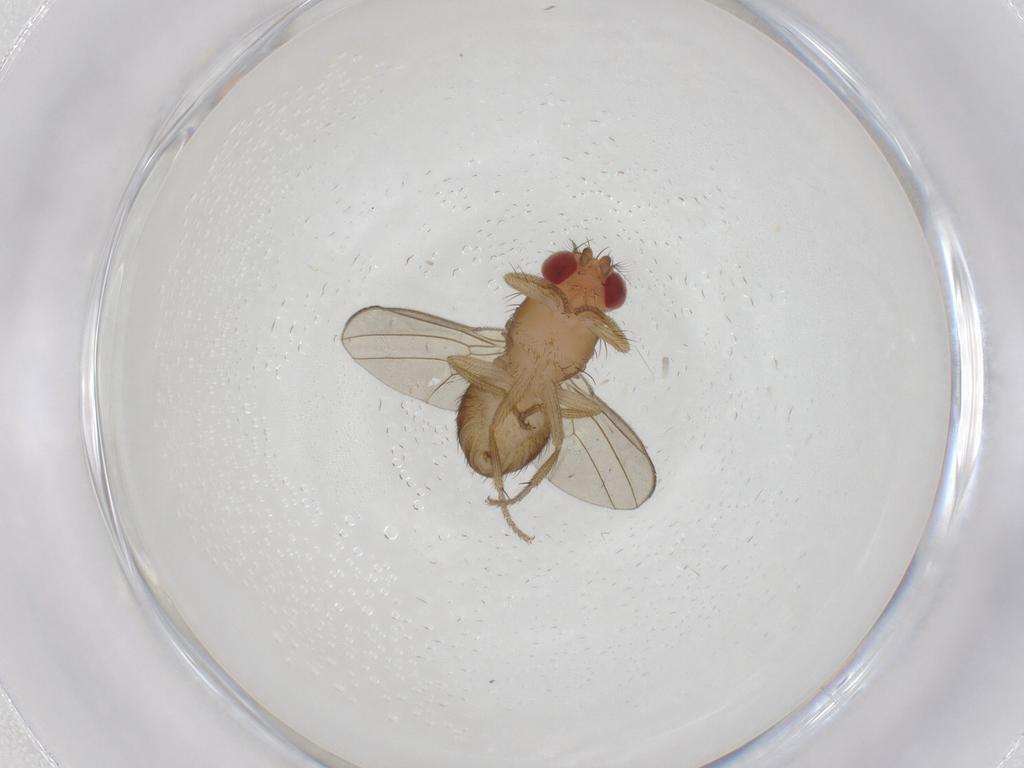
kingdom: Animalia
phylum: Arthropoda
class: Insecta
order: Diptera
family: Drosophilidae
